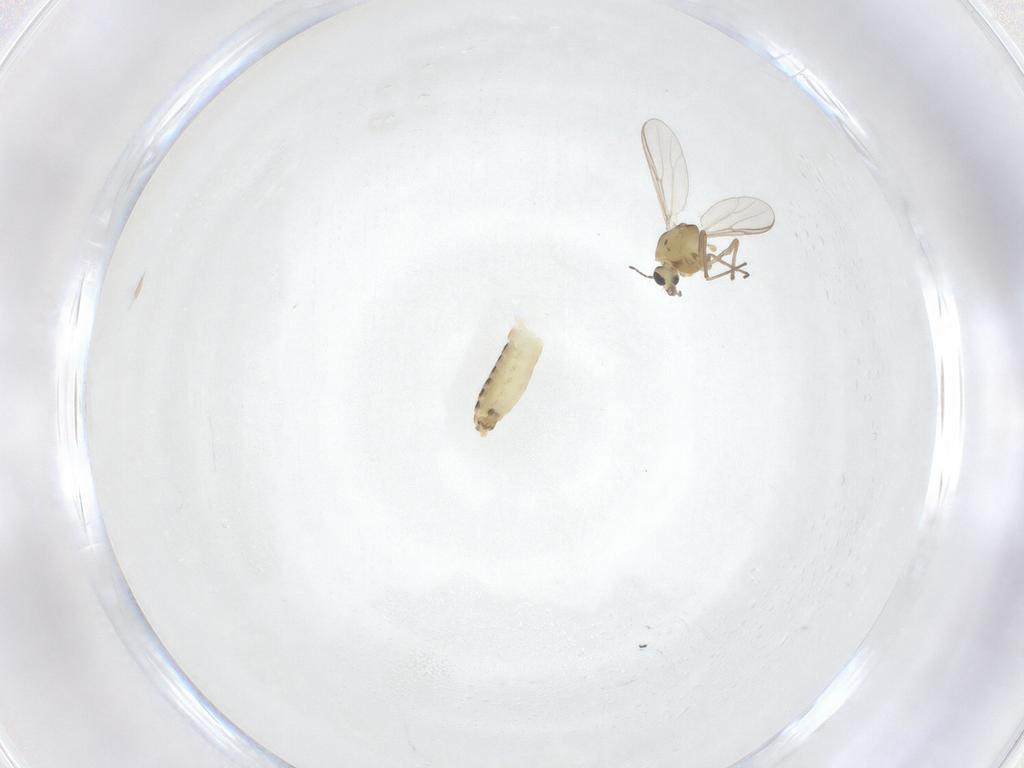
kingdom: Animalia
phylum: Arthropoda
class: Insecta
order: Diptera
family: Chironomidae
